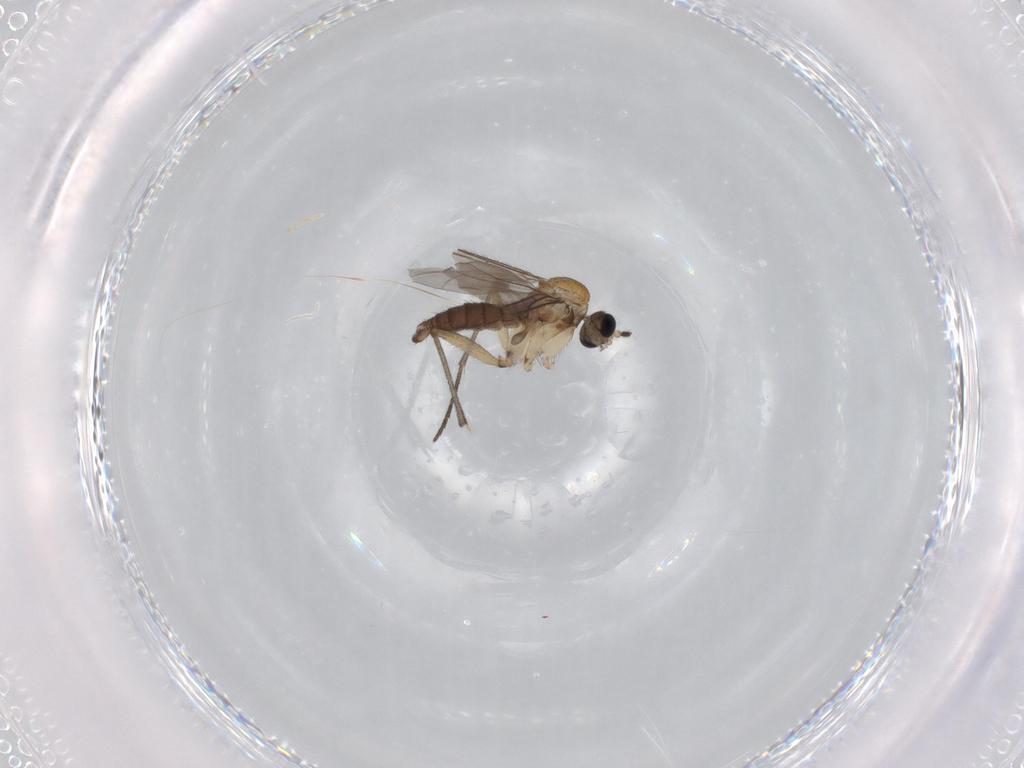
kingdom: Animalia
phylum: Arthropoda
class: Insecta
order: Diptera
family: Sciaridae
